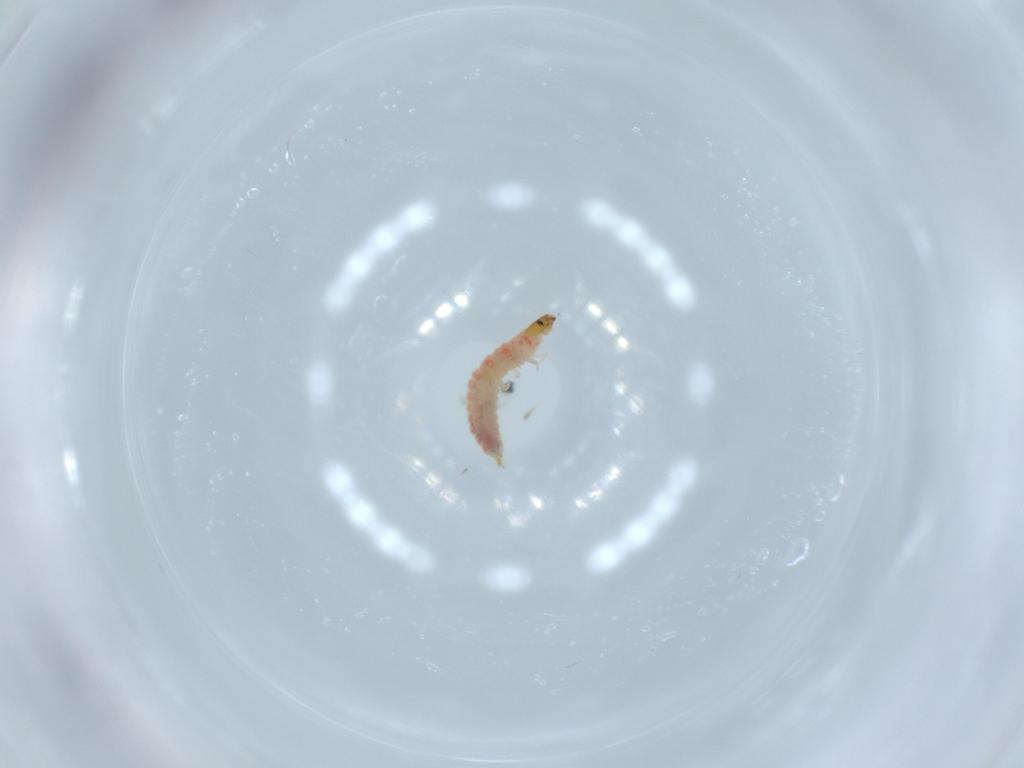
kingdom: Animalia
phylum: Arthropoda
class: Insecta
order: Coleoptera
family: Melyridae
